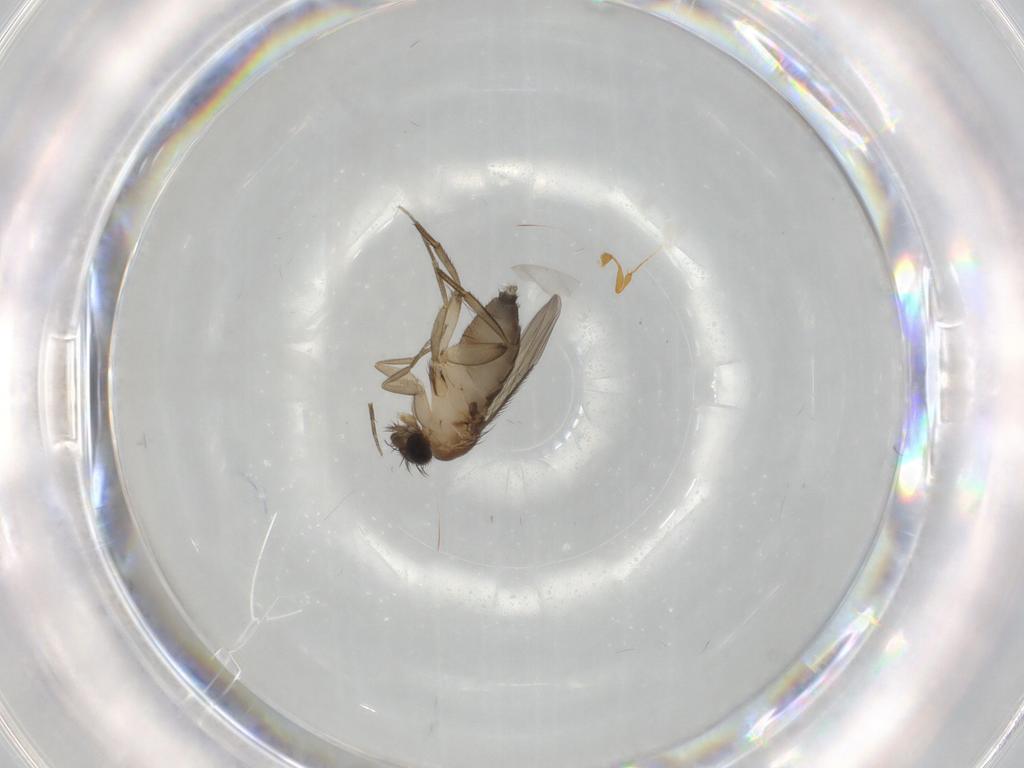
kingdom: Animalia
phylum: Arthropoda
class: Insecta
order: Diptera
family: Phoridae
